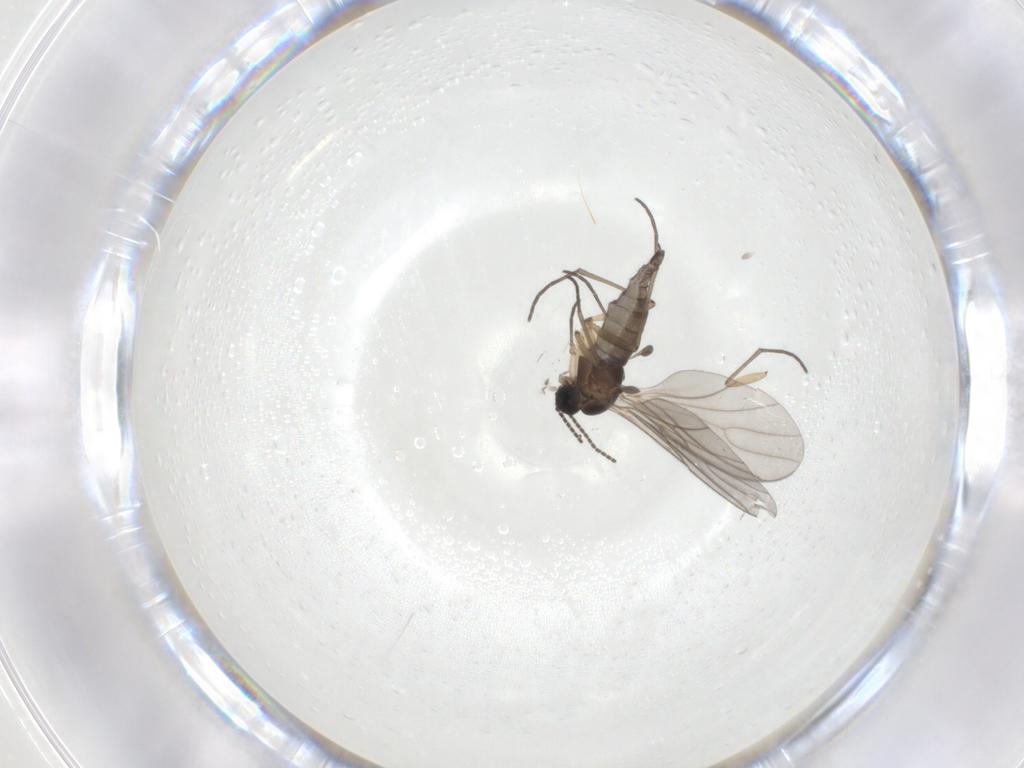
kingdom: Animalia
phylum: Arthropoda
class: Insecta
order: Diptera
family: Sciaridae
